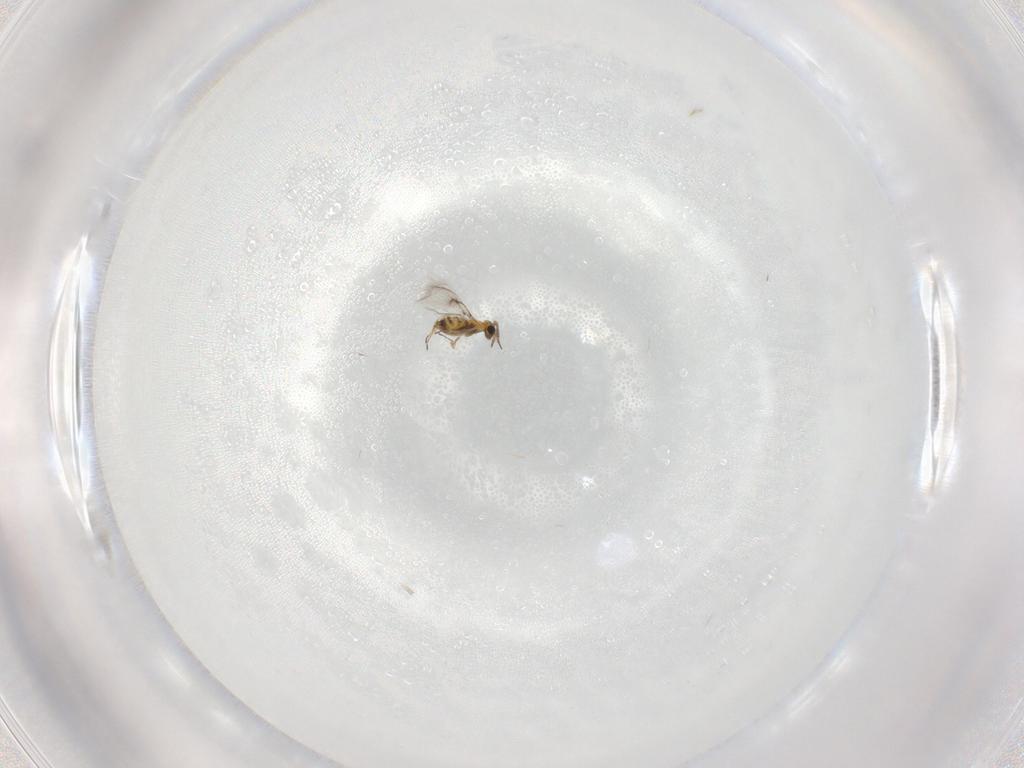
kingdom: Animalia
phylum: Arthropoda
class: Insecta
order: Hymenoptera
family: Trichogrammatidae
